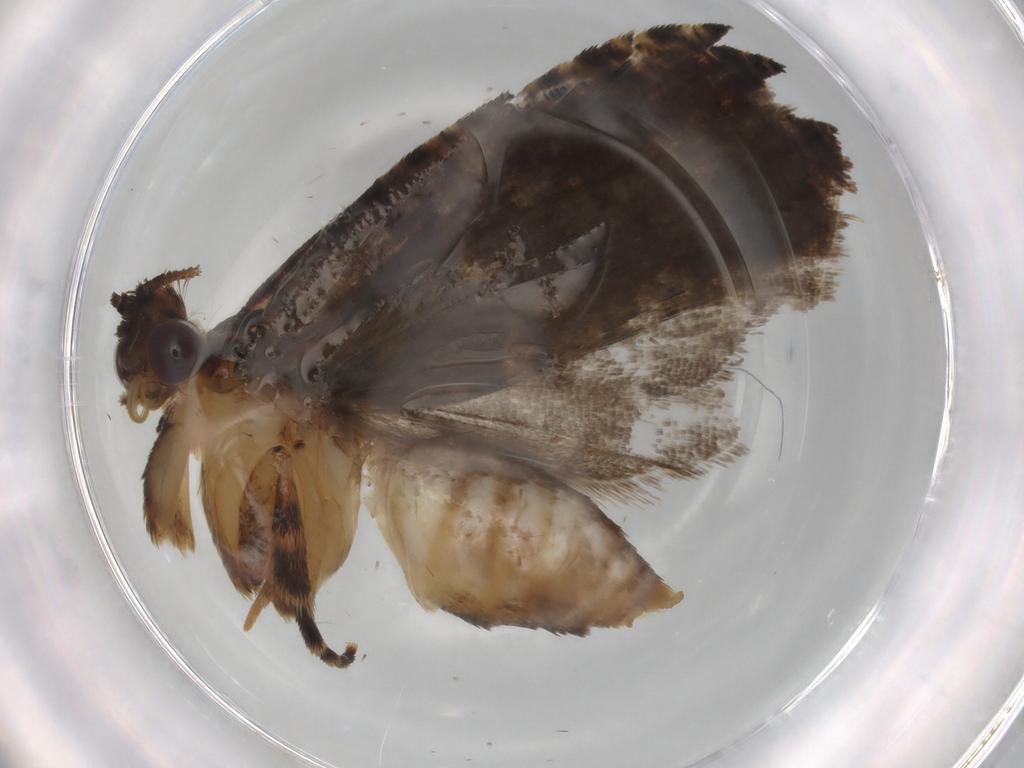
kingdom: Animalia
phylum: Arthropoda
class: Insecta
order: Lepidoptera
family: Tortricidae
